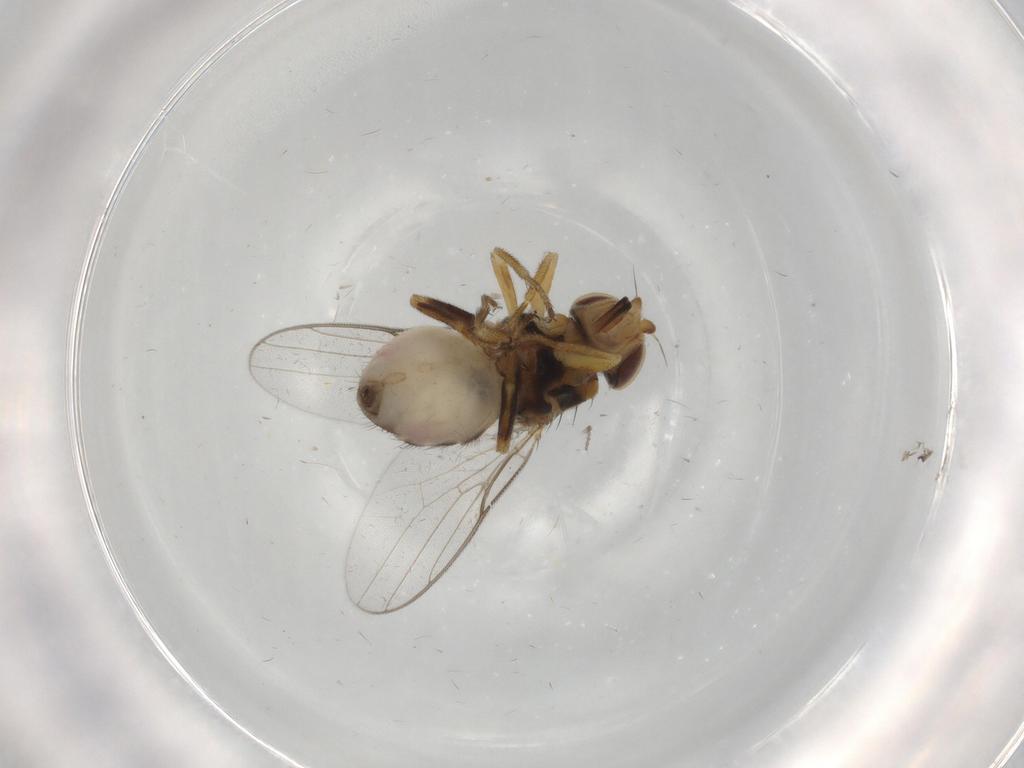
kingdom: Animalia
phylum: Arthropoda
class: Insecta
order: Diptera
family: Chloropidae
